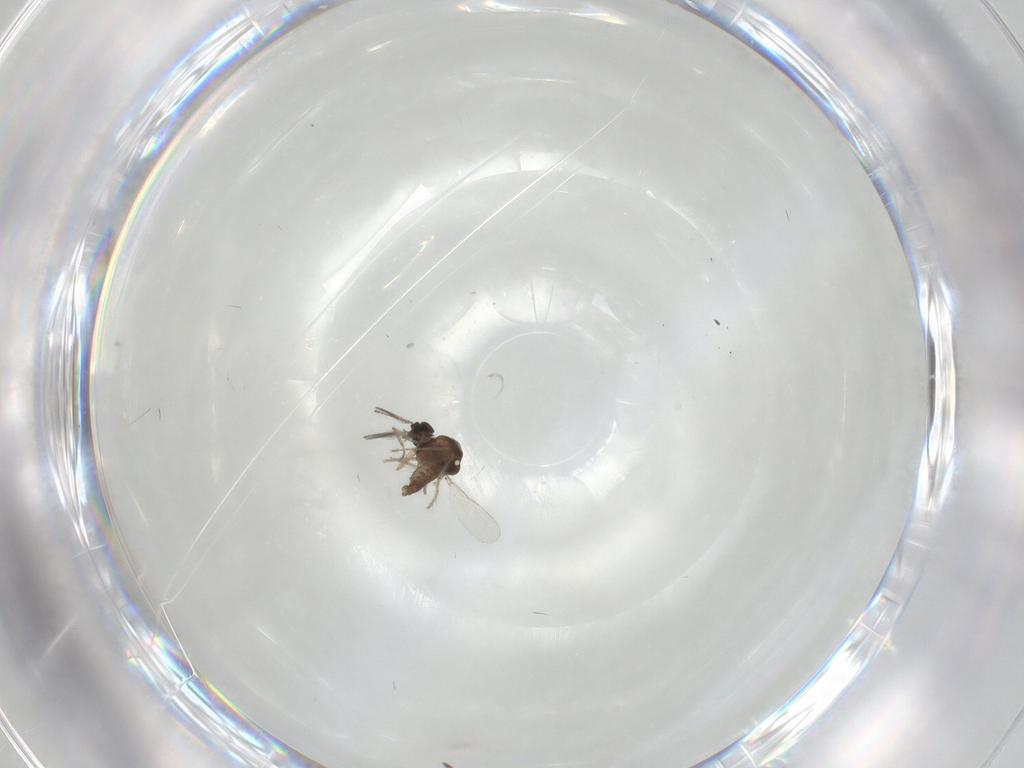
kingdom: Animalia
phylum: Arthropoda
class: Insecta
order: Diptera
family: Ceratopogonidae
